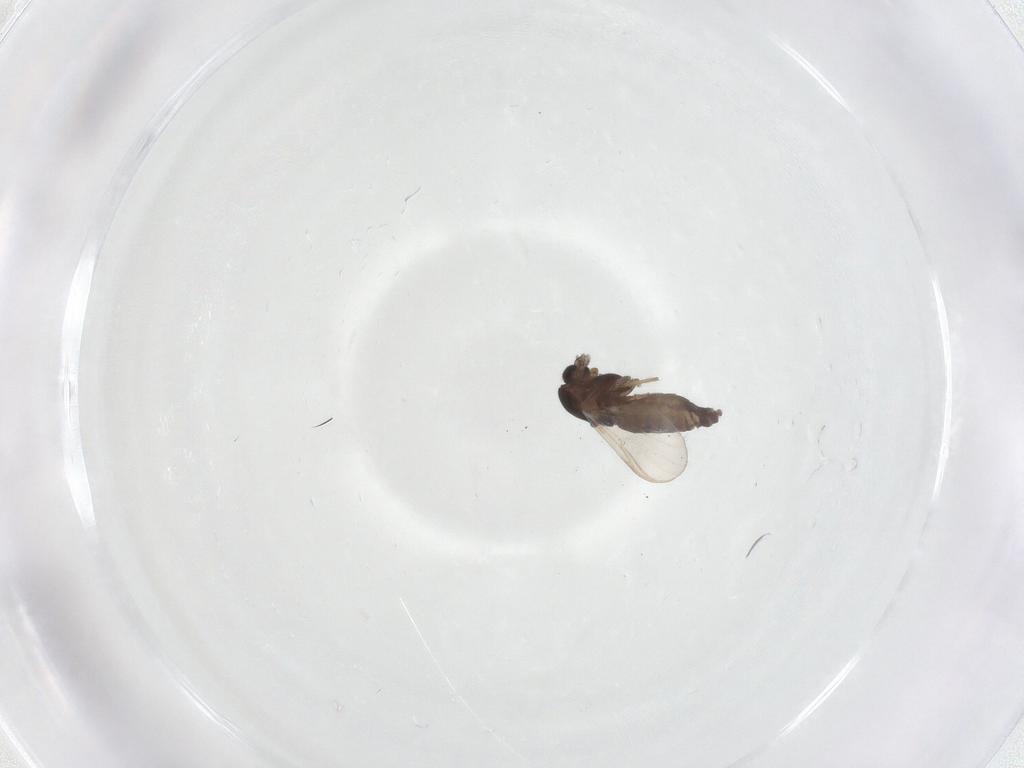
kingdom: Animalia
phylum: Arthropoda
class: Insecta
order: Diptera
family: Chironomidae
